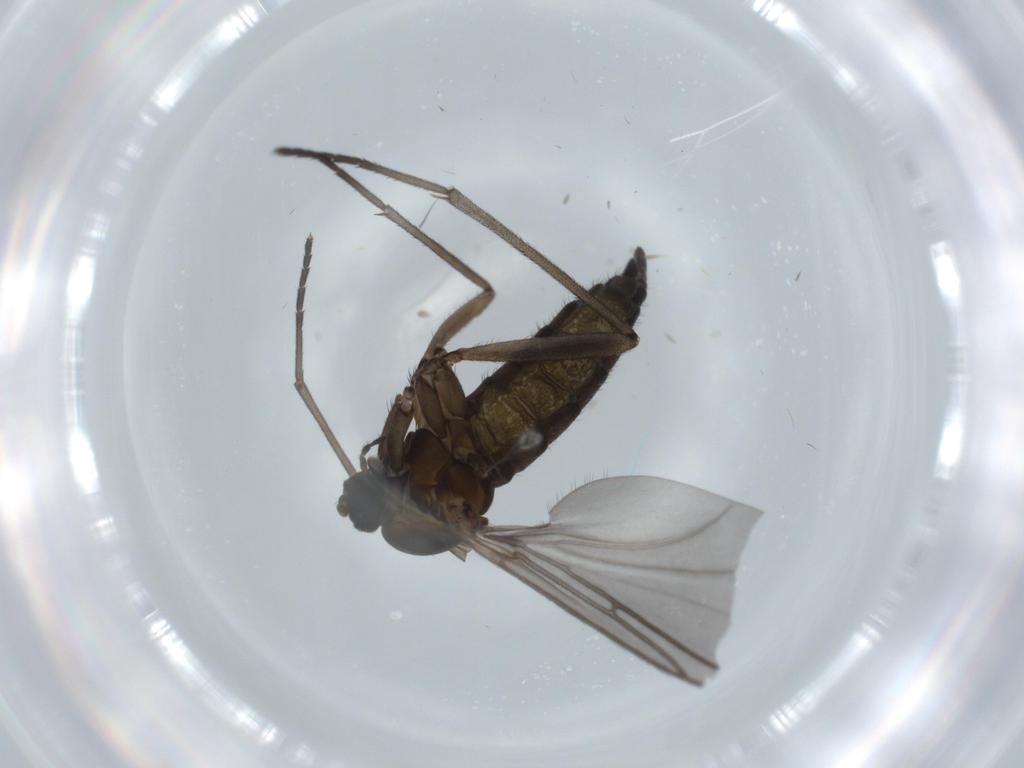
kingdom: Animalia
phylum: Arthropoda
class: Insecta
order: Diptera
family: Sciaridae
